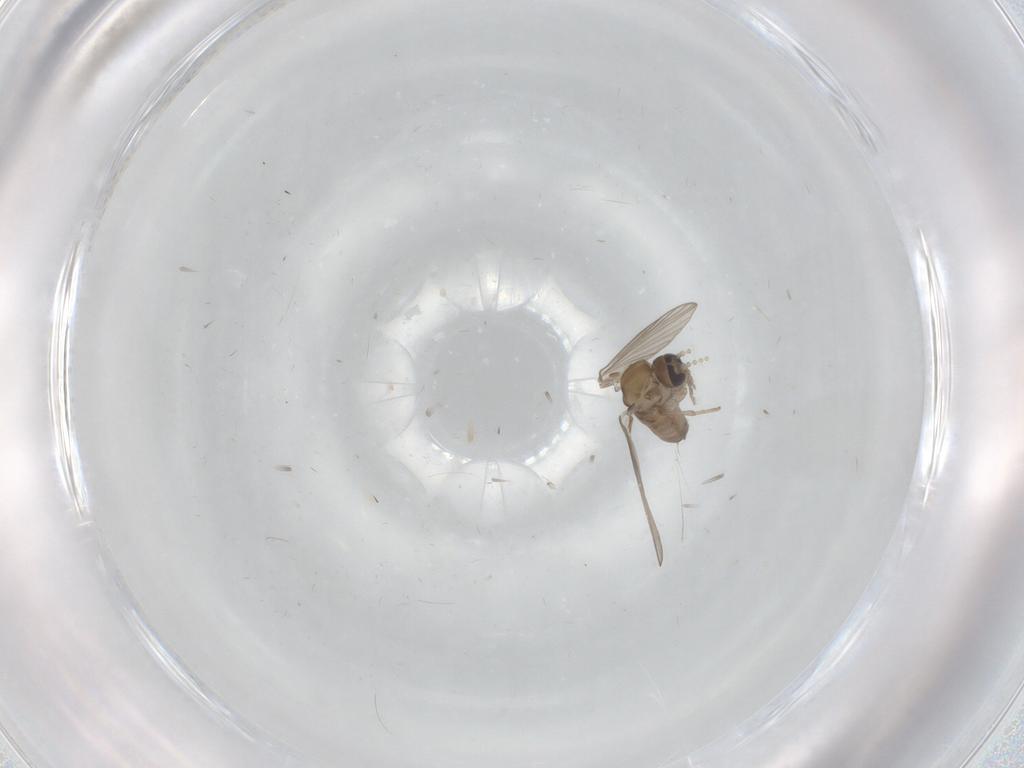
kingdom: Animalia
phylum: Arthropoda
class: Insecta
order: Diptera
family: Psychodidae
